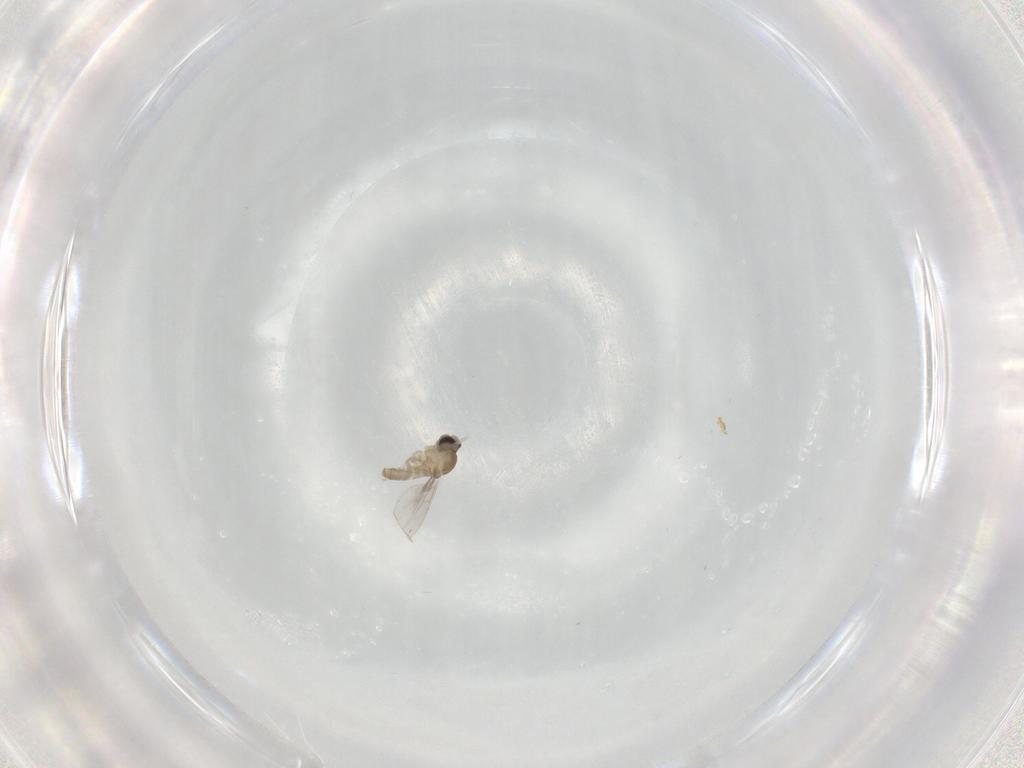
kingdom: Animalia
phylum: Arthropoda
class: Insecta
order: Diptera
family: Cecidomyiidae
